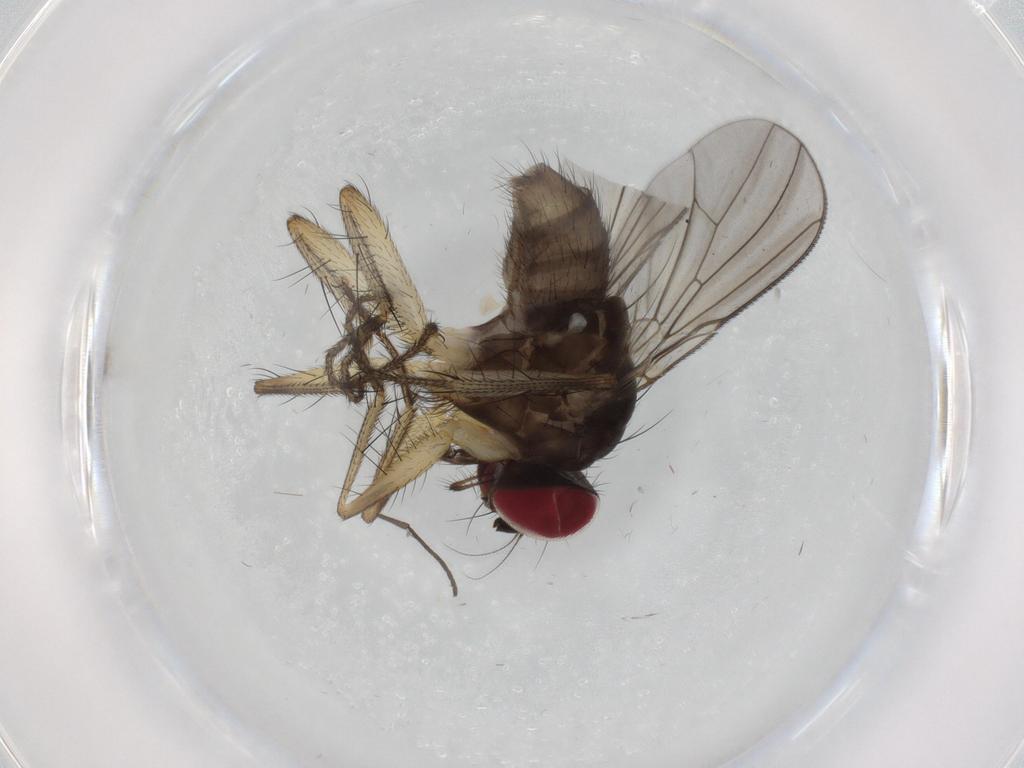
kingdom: Animalia
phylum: Arthropoda
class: Insecta
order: Diptera
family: Anthomyiidae
